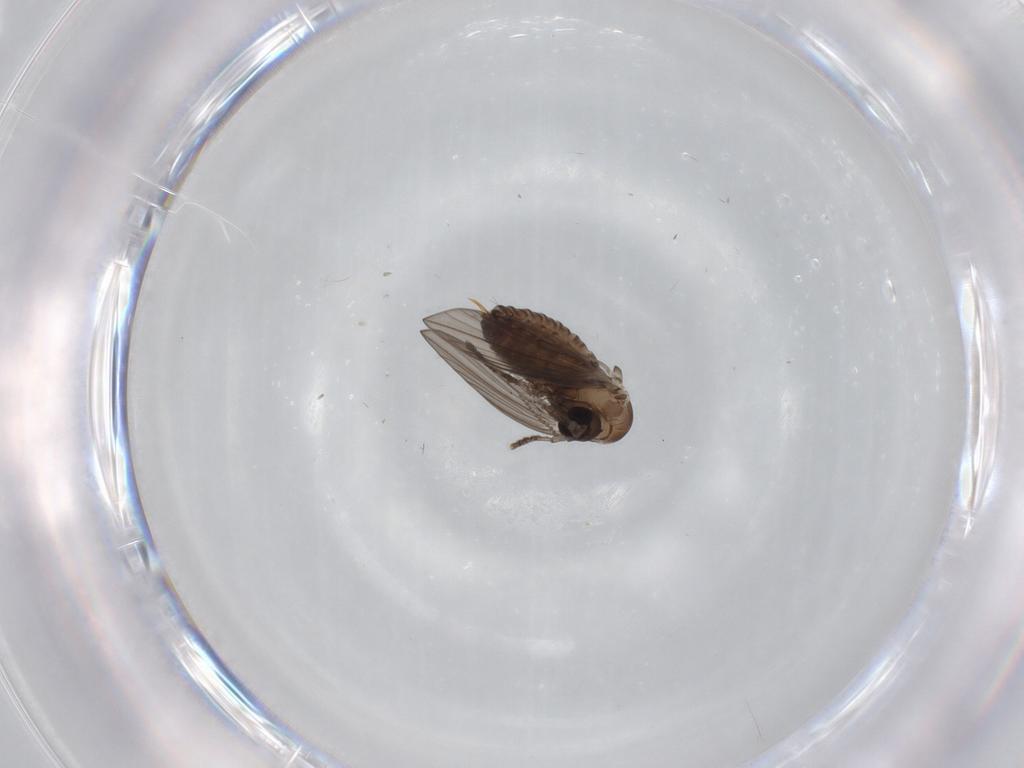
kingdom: Animalia
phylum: Arthropoda
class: Insecta
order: Diptera
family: Psychodidae
